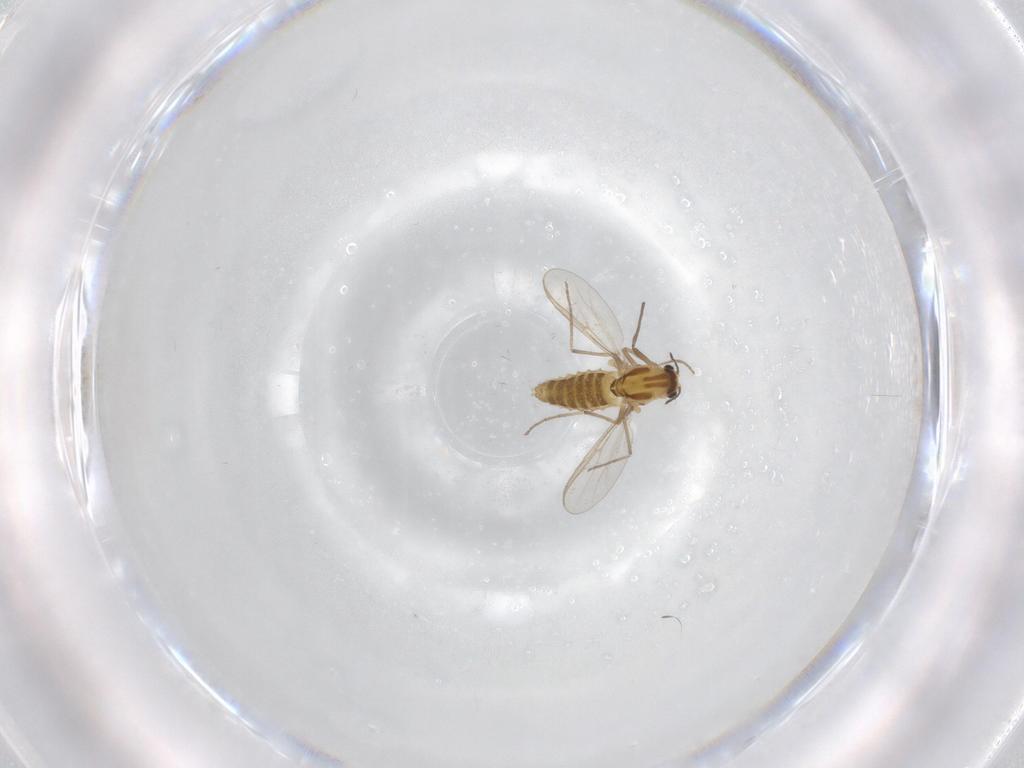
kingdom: Animalia
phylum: Arthropoda
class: Insecta
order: Diptera
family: Chironomidae
